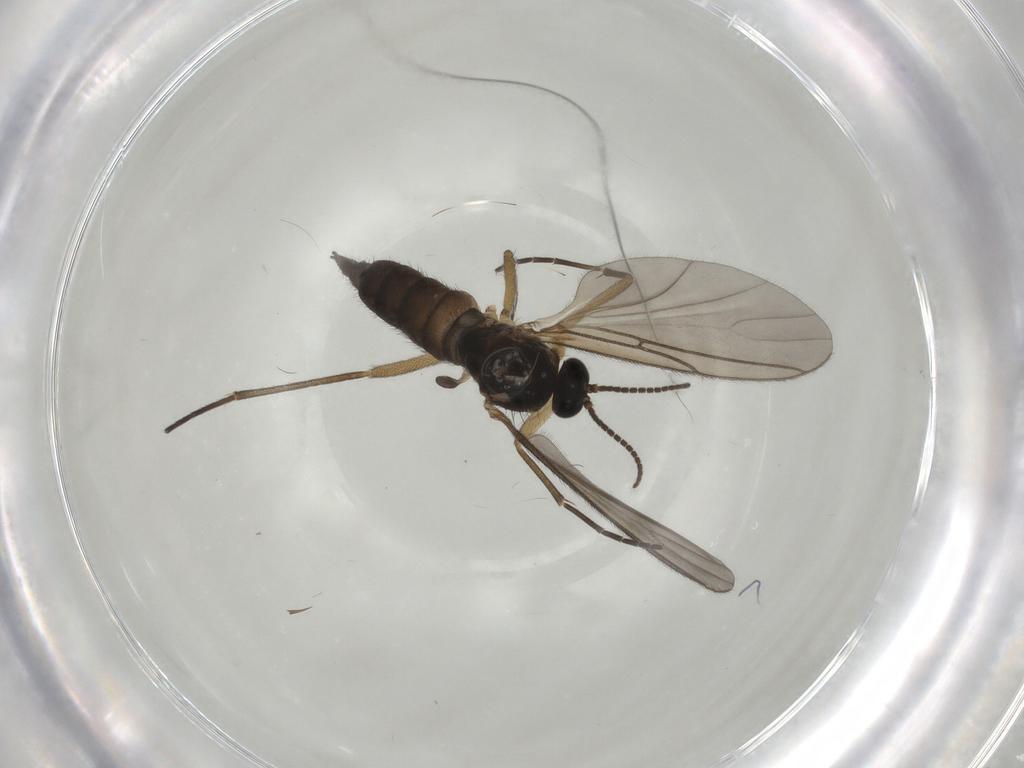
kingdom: Animalia
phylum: Arthropoda
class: Insecta
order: Diptera
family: Sciaridae
